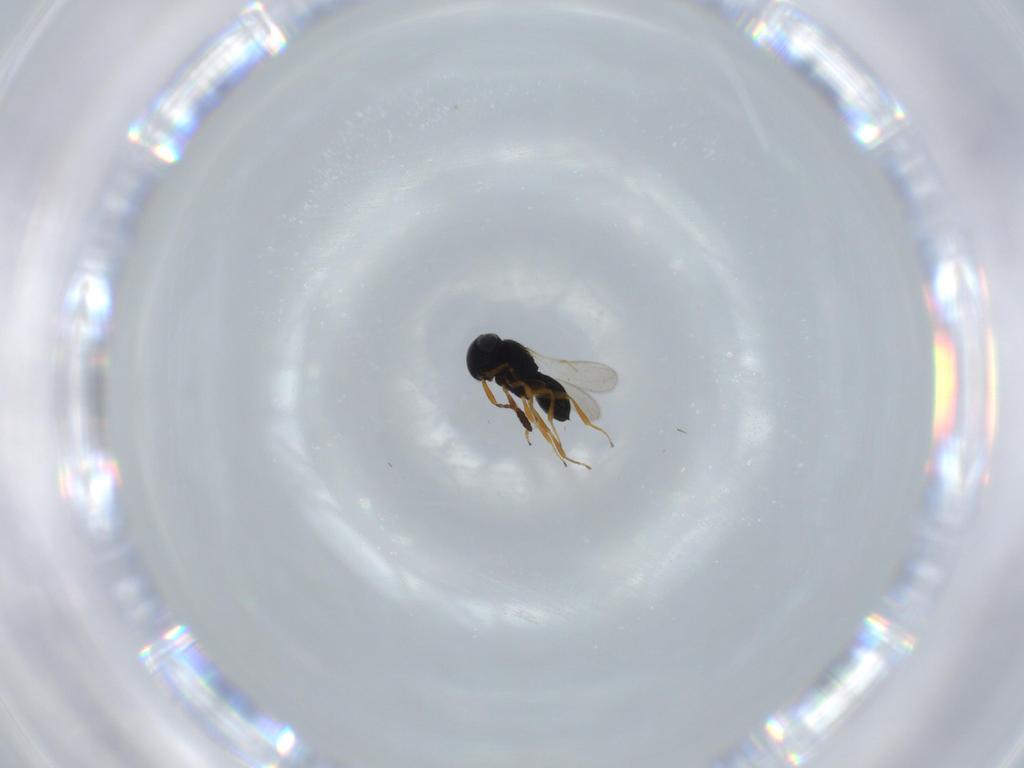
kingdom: Animalia
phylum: Arthropoda
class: Insecta
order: Hymenoptera
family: Scelionidae
